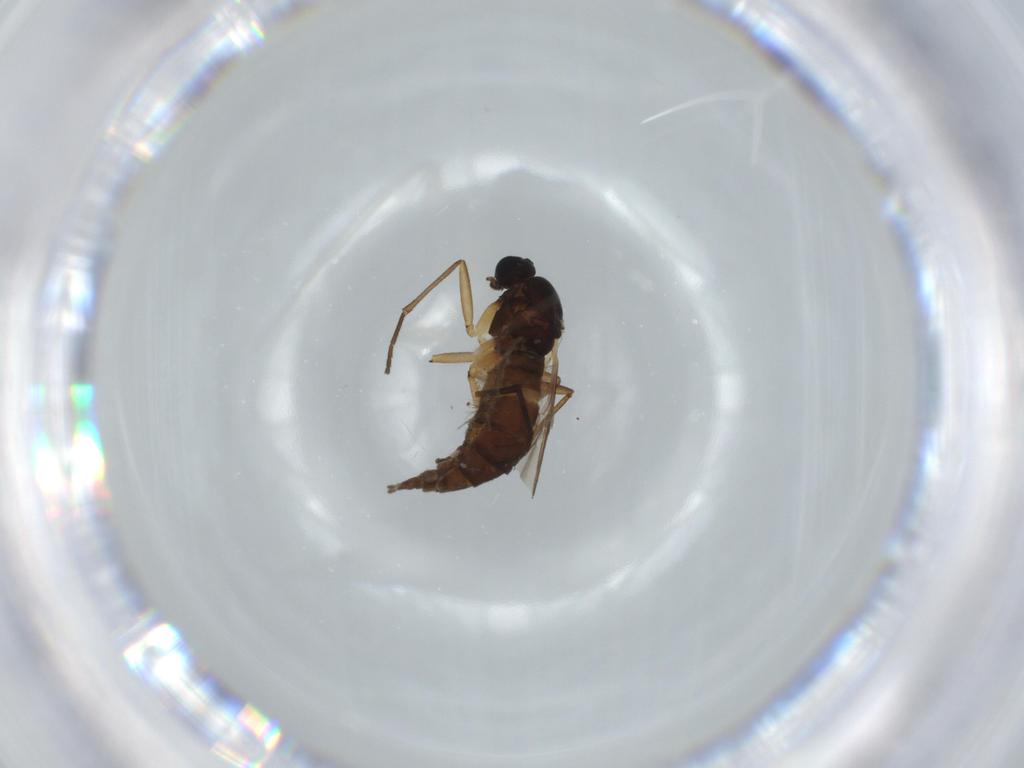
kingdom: Animalia
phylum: Arthropoda
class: Insecta
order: Diptera
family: Sciaridae
